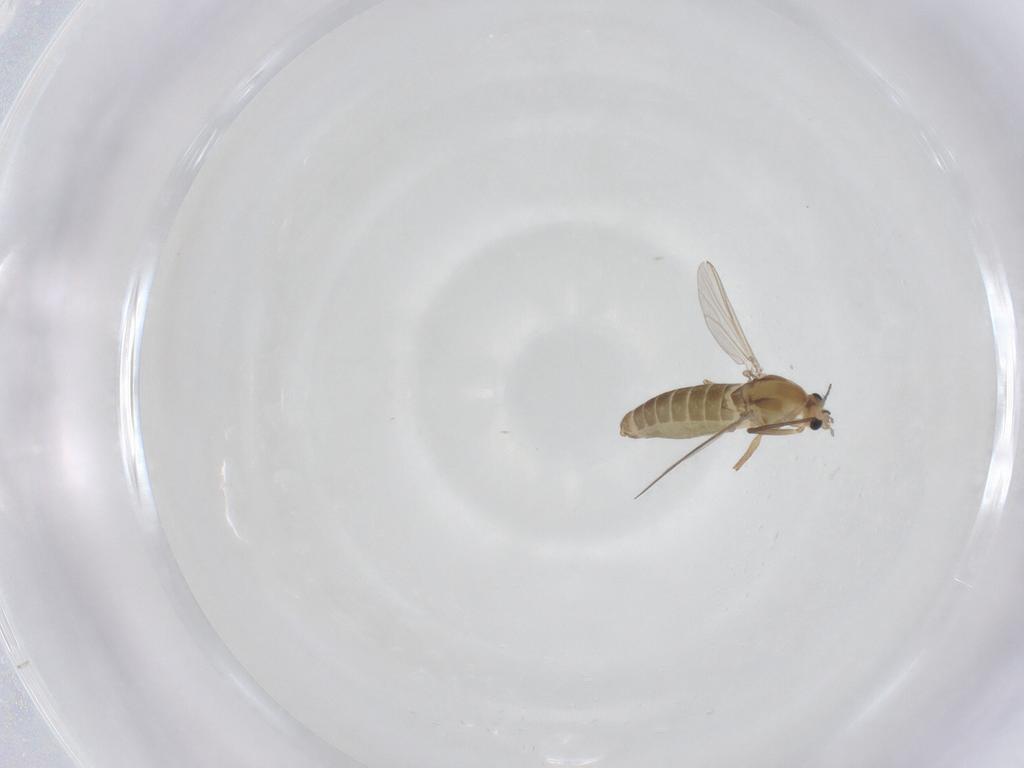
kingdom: Animalia
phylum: Arthropoda
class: Insecta
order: Diptera
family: Chironomidae
